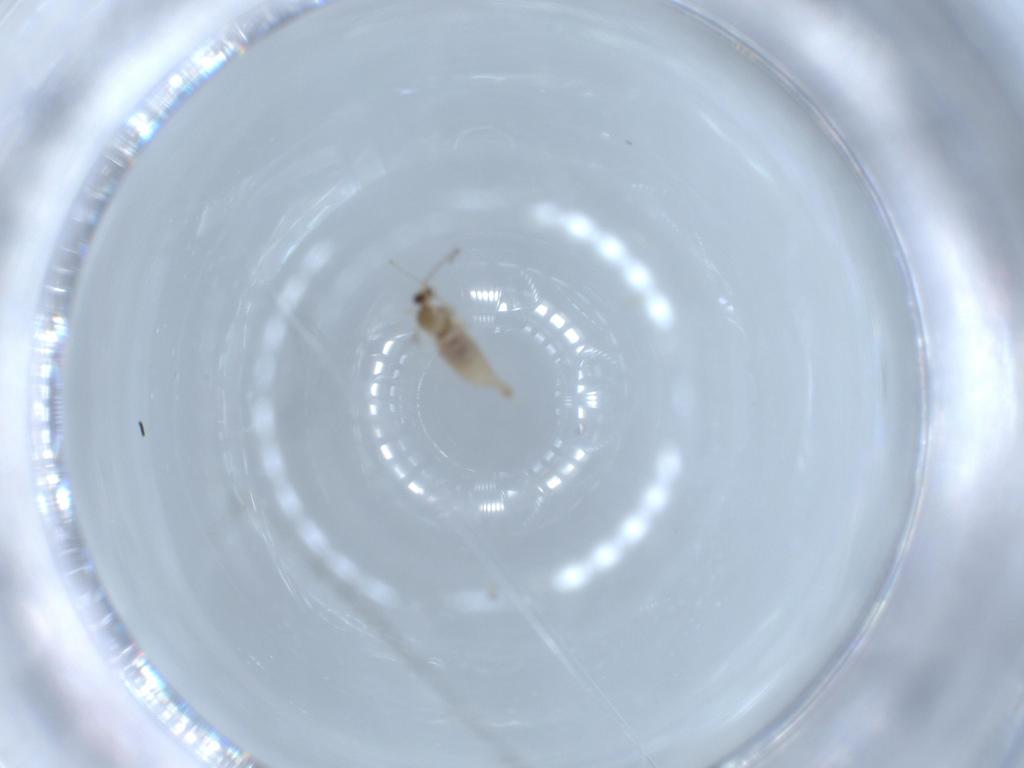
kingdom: Animalia
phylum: Arthropoda
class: Insecta
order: Diptera
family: Cecidomyiidae
